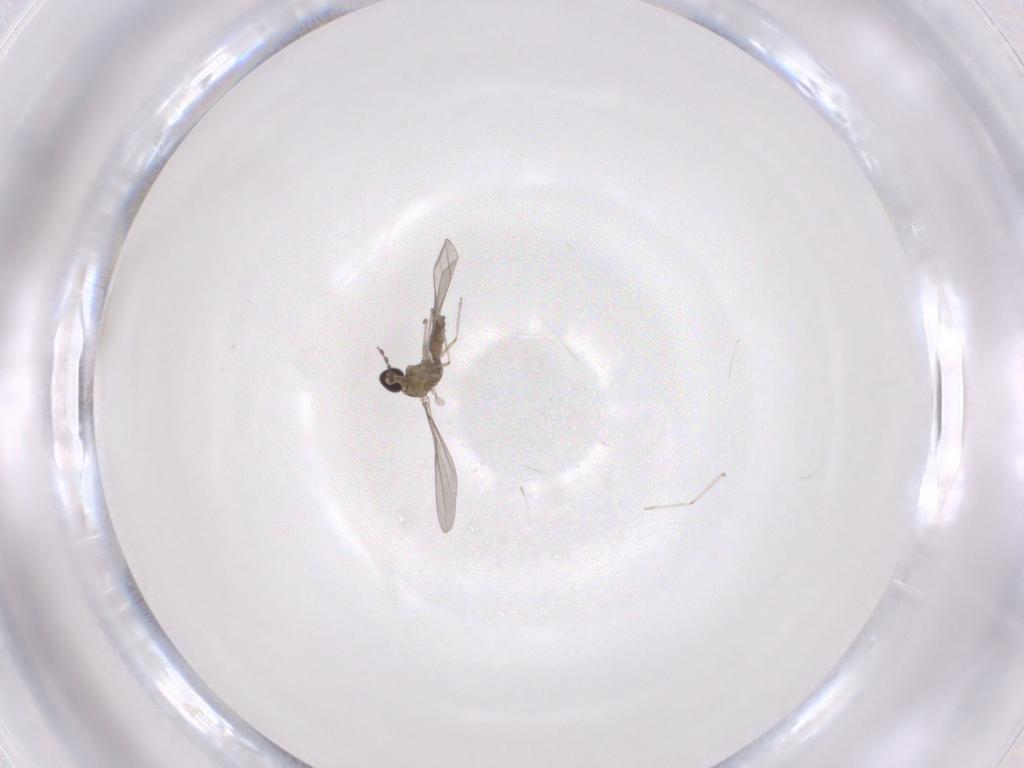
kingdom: Animalia
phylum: Arthropoda
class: Insecta
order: Diptera
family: Cecidomyiidae
